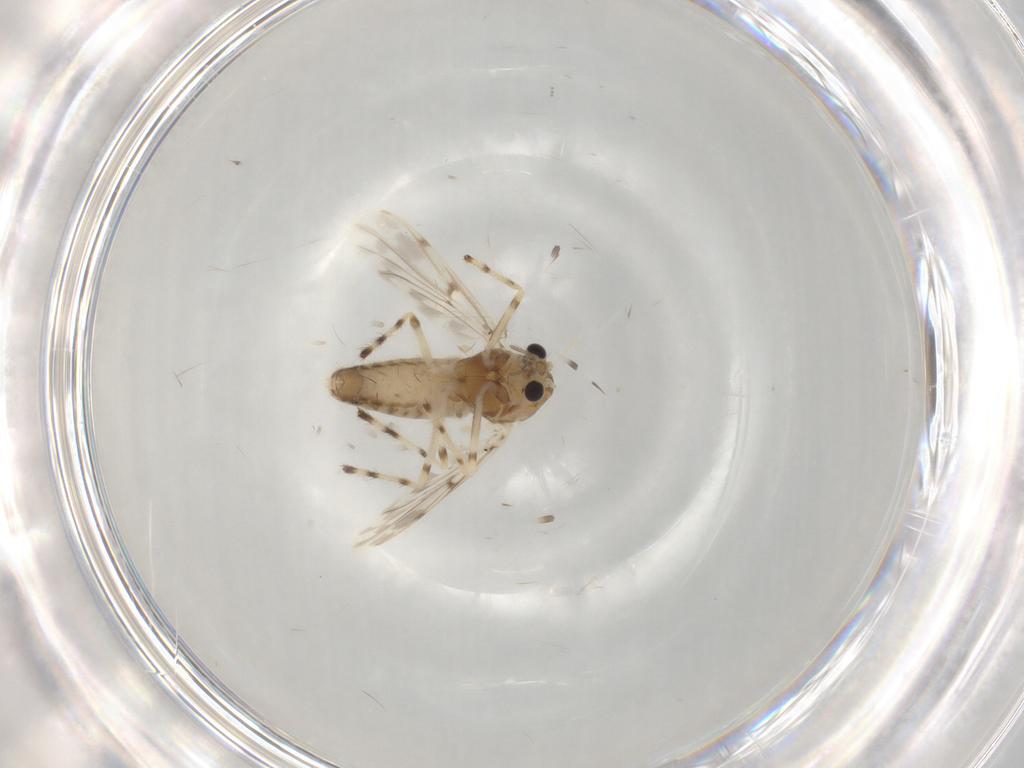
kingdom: Animalia
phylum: Arthropoda
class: Insecta
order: Diptera
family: Chironomidae
